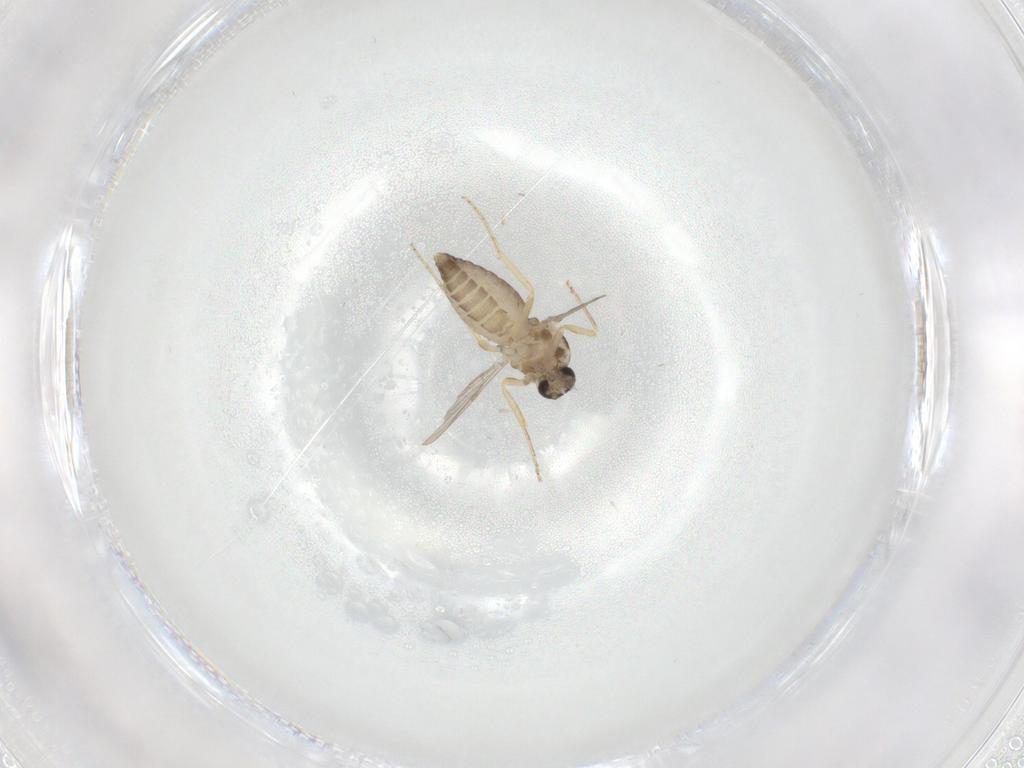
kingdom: Animalia
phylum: Arthropoda
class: Insecta
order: Diptera
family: Ceratopogonidae
